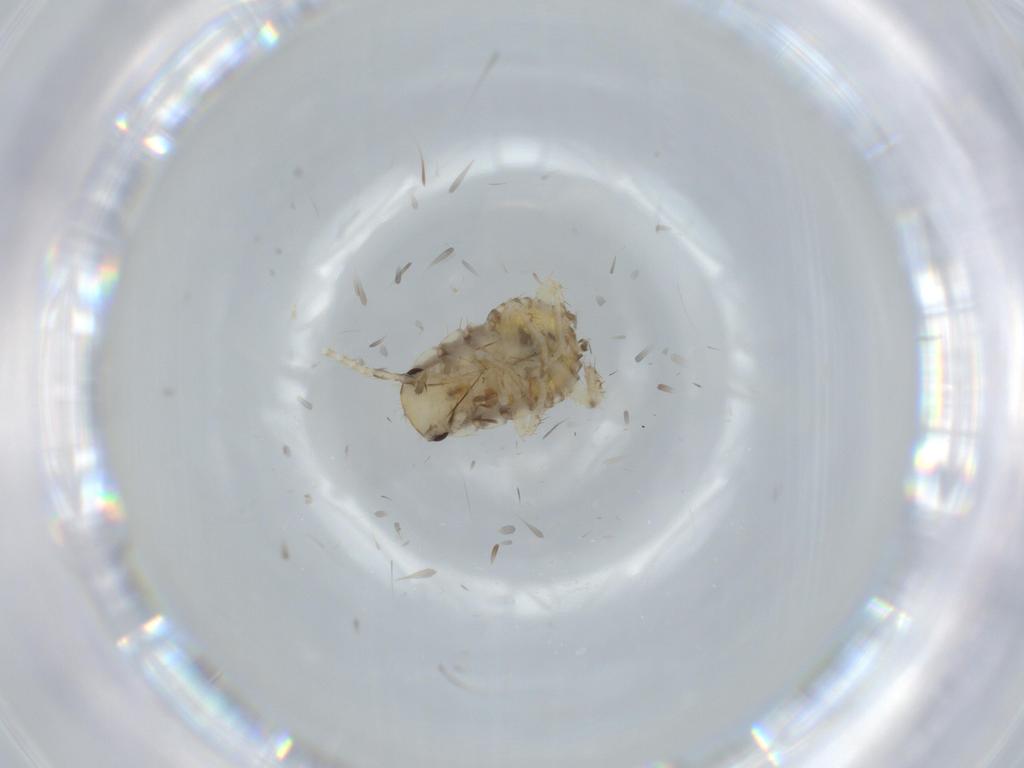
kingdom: Animalia
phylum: Arthropoda
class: Insecta
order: Blattodea
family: Ectobiidae
